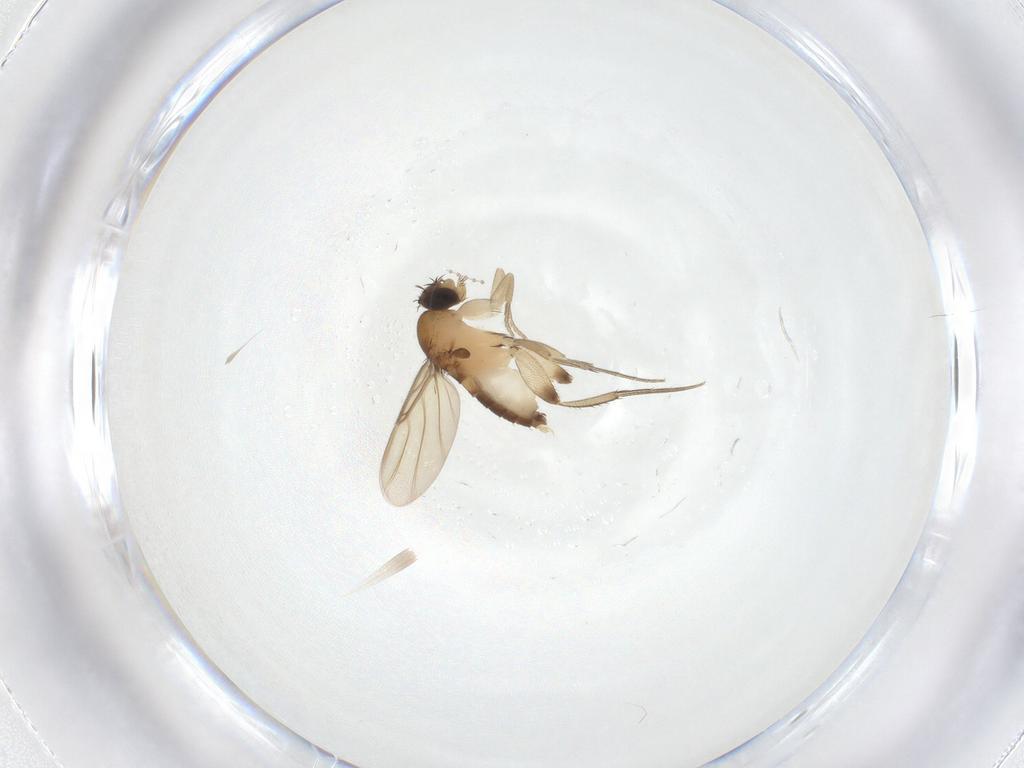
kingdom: Animalia
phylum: Arthropoda
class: Insecta
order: Diptera
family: Phoridae
